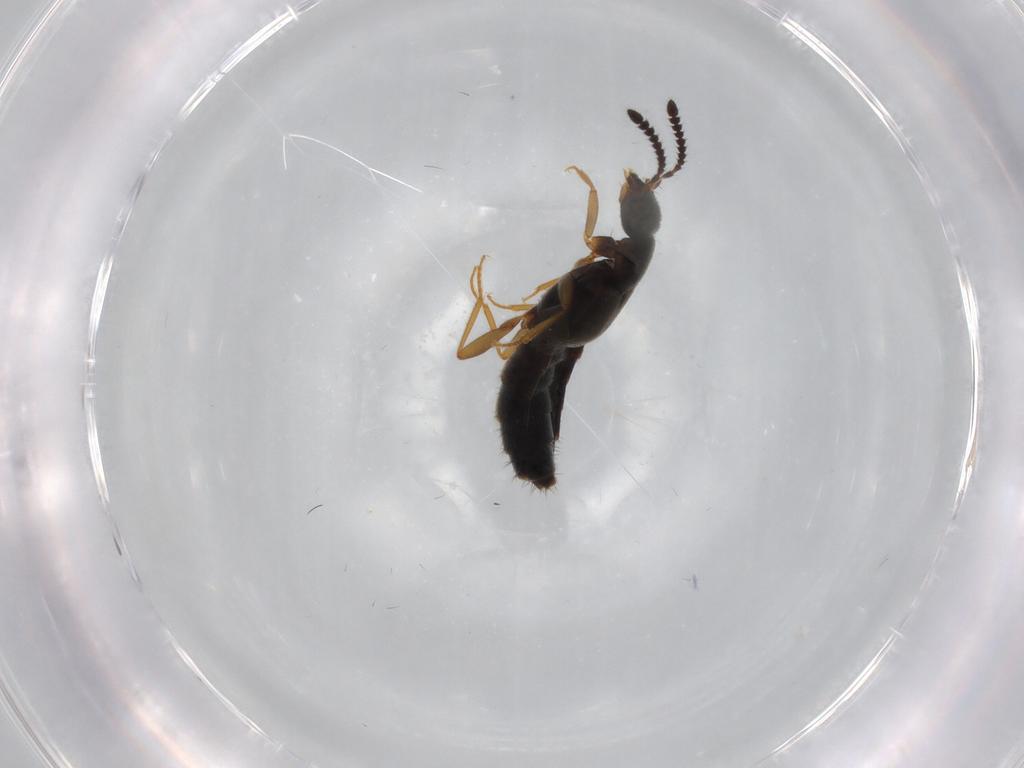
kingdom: Animalia
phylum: Arthropoda
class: Insecta
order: Coleoptera
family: Staphylinidae
